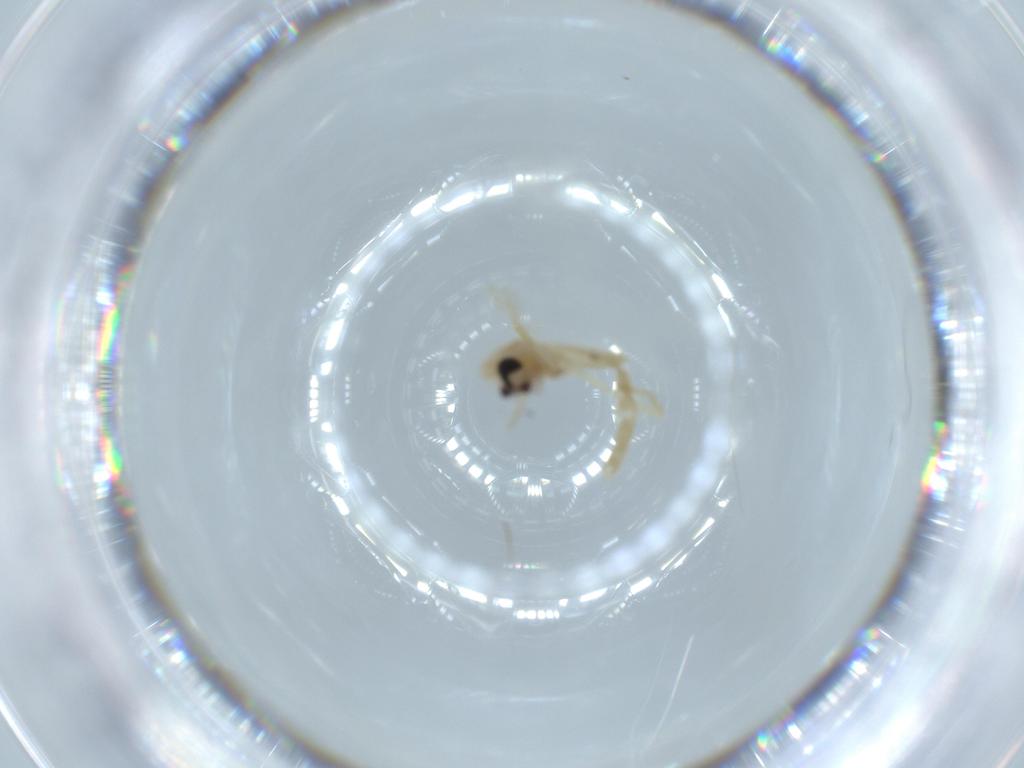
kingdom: Animalia
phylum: Arthropoda
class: Insecta
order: Diptera
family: Chironomidae
